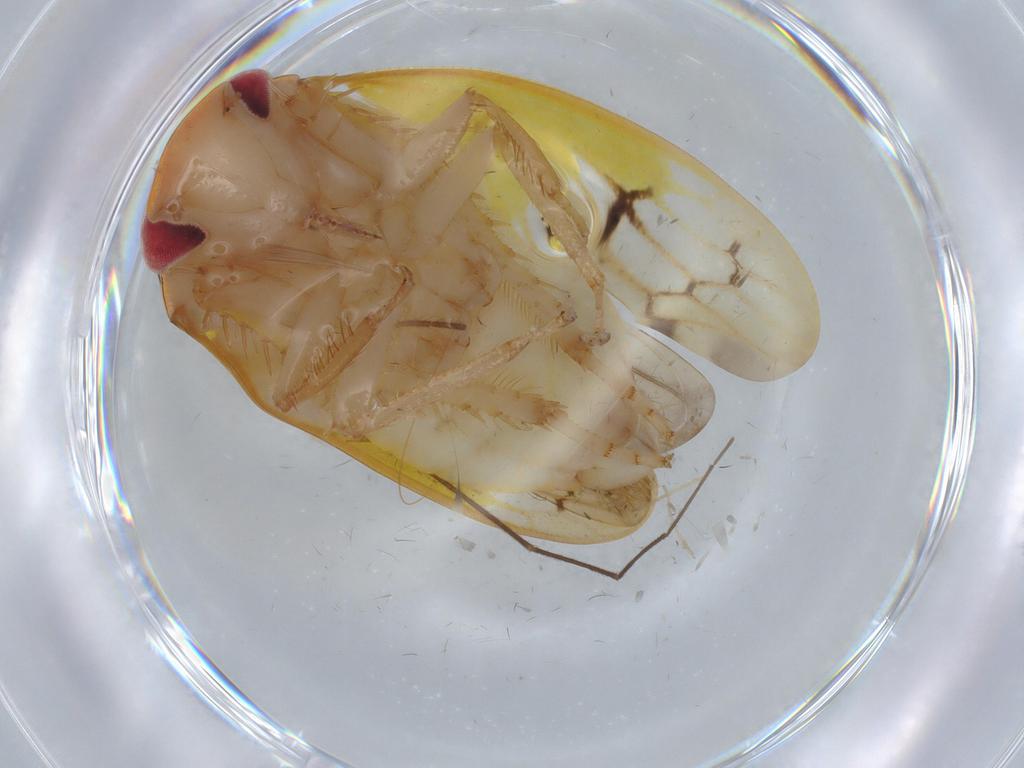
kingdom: Animalia
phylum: Arthropoda
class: Insecta
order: Hemiptera
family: Cicadellidae
